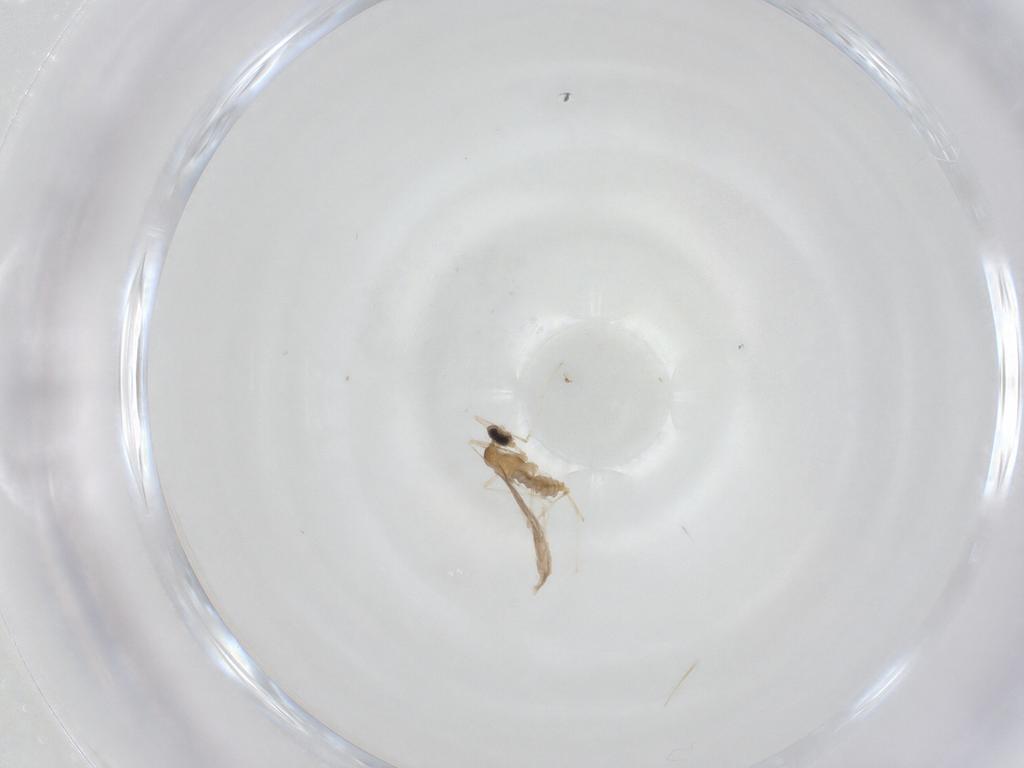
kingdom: Animalia
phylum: Arthropoda
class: Insecta
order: Diptera
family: Cecidomyiidae
